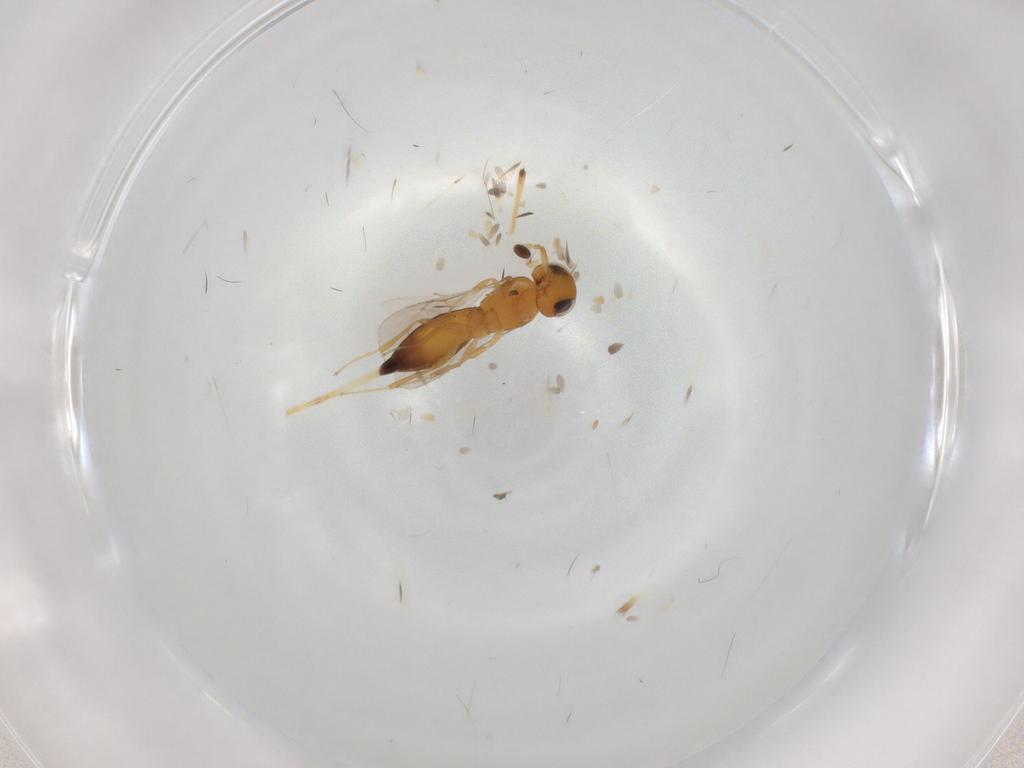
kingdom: Animalia
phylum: Arthropoda
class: Insecta
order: Hymenoptera
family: Scelionidae
